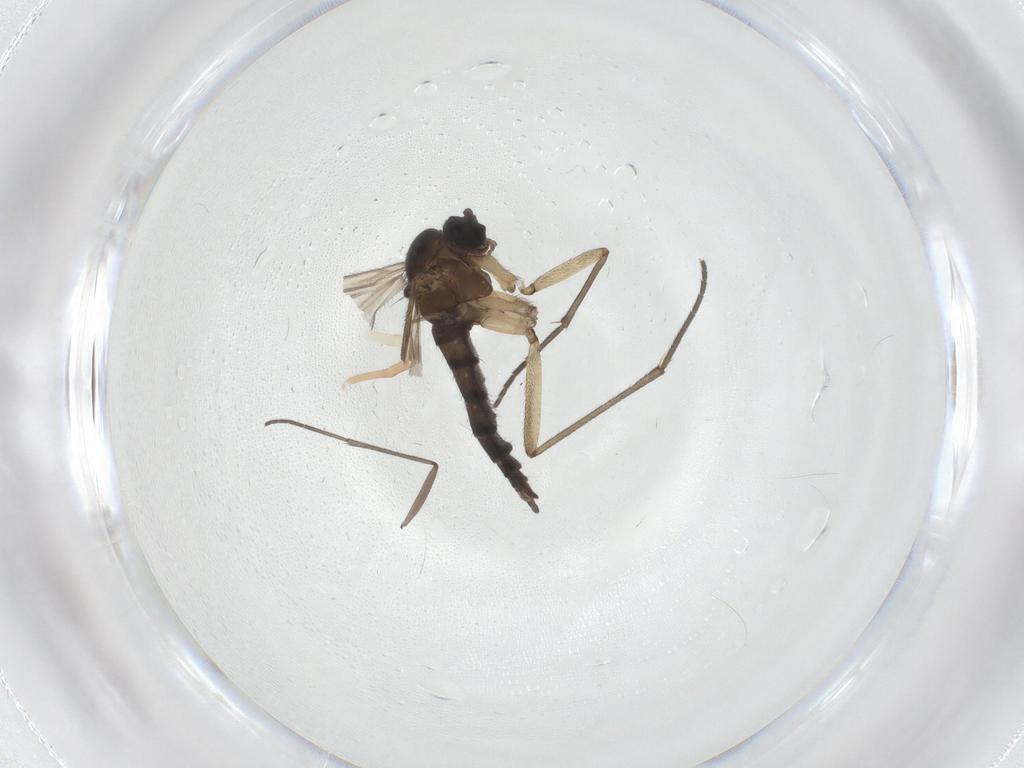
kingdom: Animalia
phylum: Arthropoda
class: Insecta
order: Diptera
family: Sciaridae
